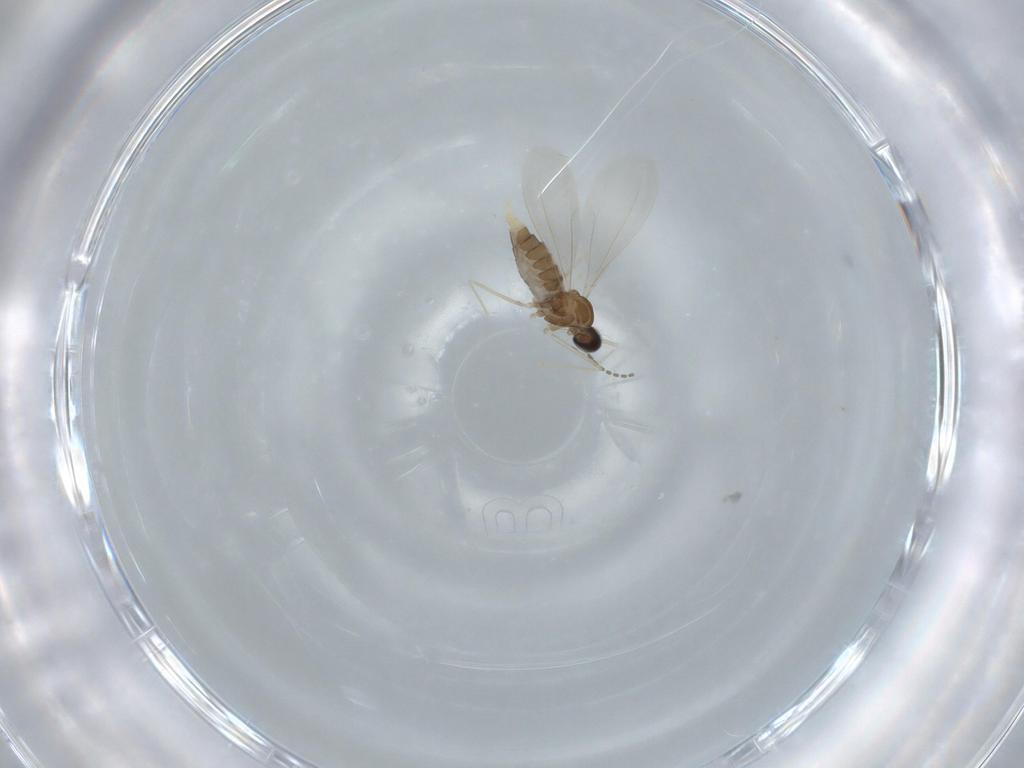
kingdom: Animalia
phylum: Arthropoda
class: Insecta
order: Diptera
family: Cecidomyiidae
